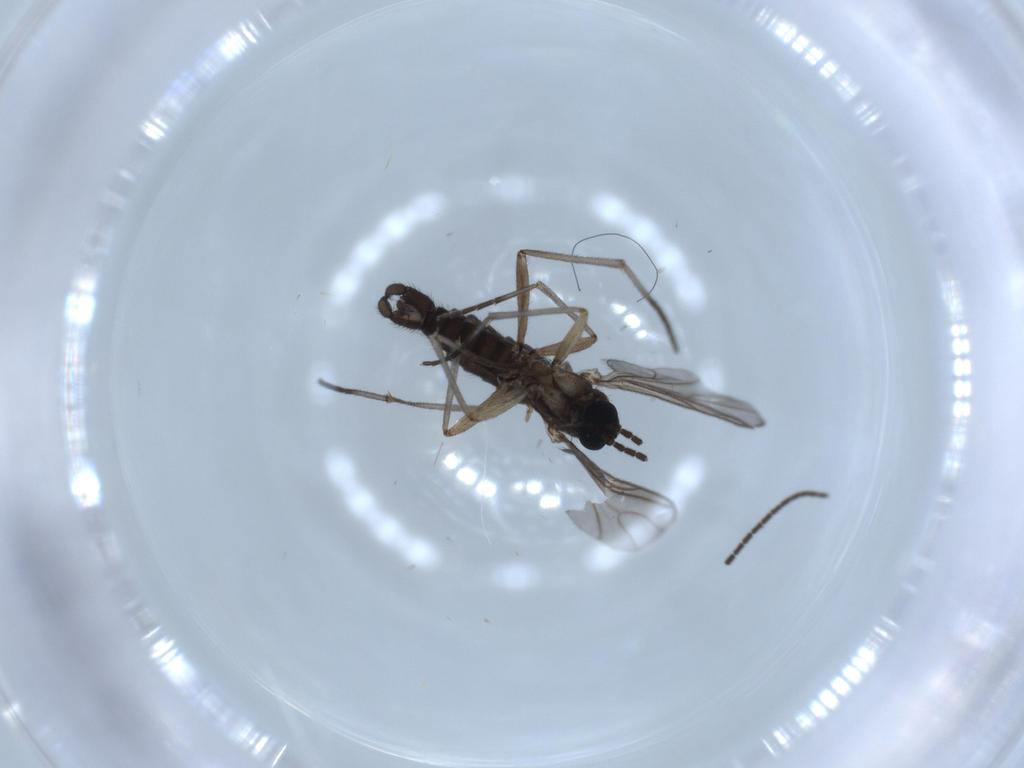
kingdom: Animalia
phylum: Arthropoda
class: Insecta
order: Diptera
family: Sciaridae
